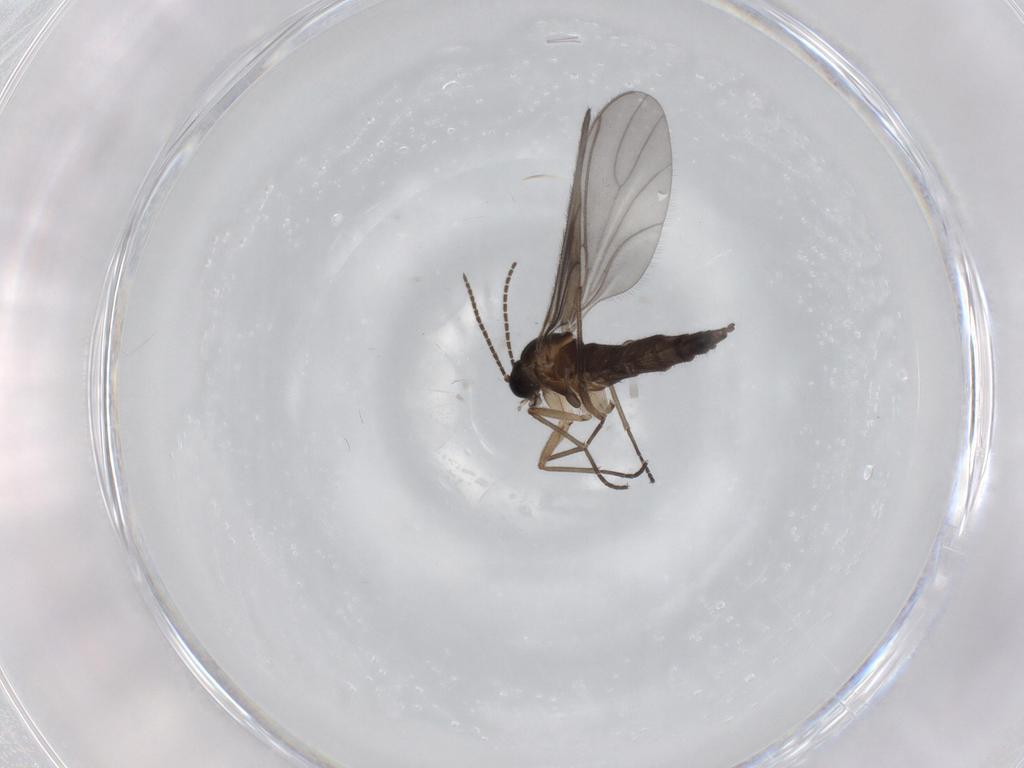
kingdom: Animalia
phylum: Arthropoda
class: Insecta
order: Diptera
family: Sciaridae
